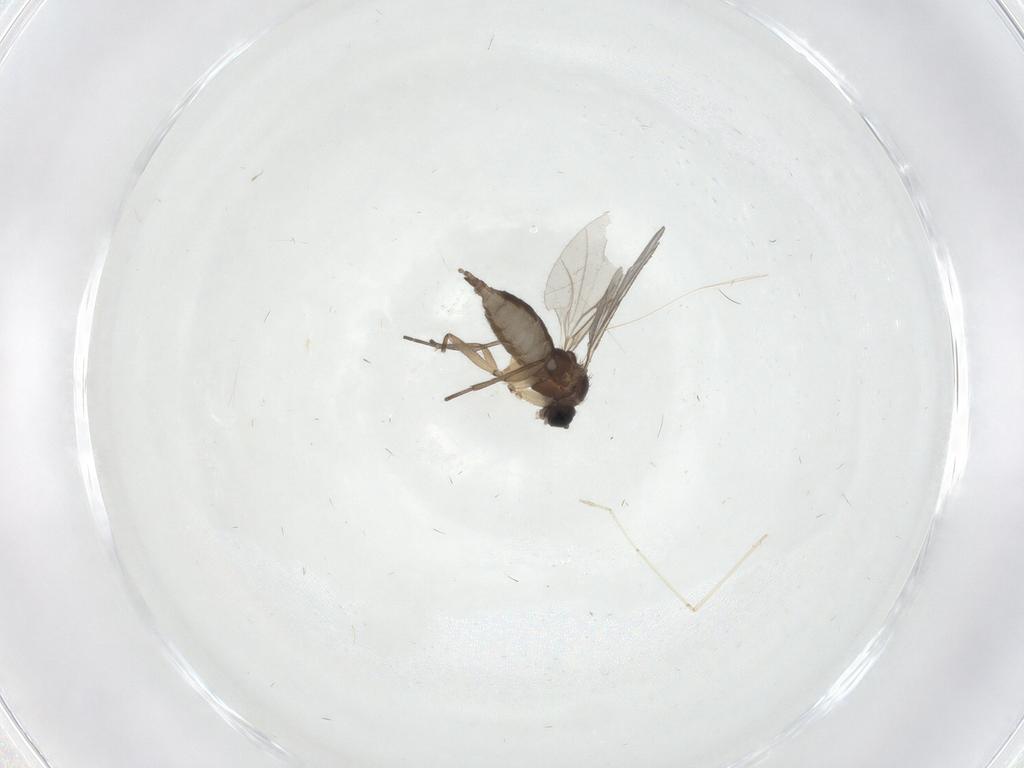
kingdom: Animalia
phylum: Arthropoda
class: Insecta
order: Diptera
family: Sciaridae
